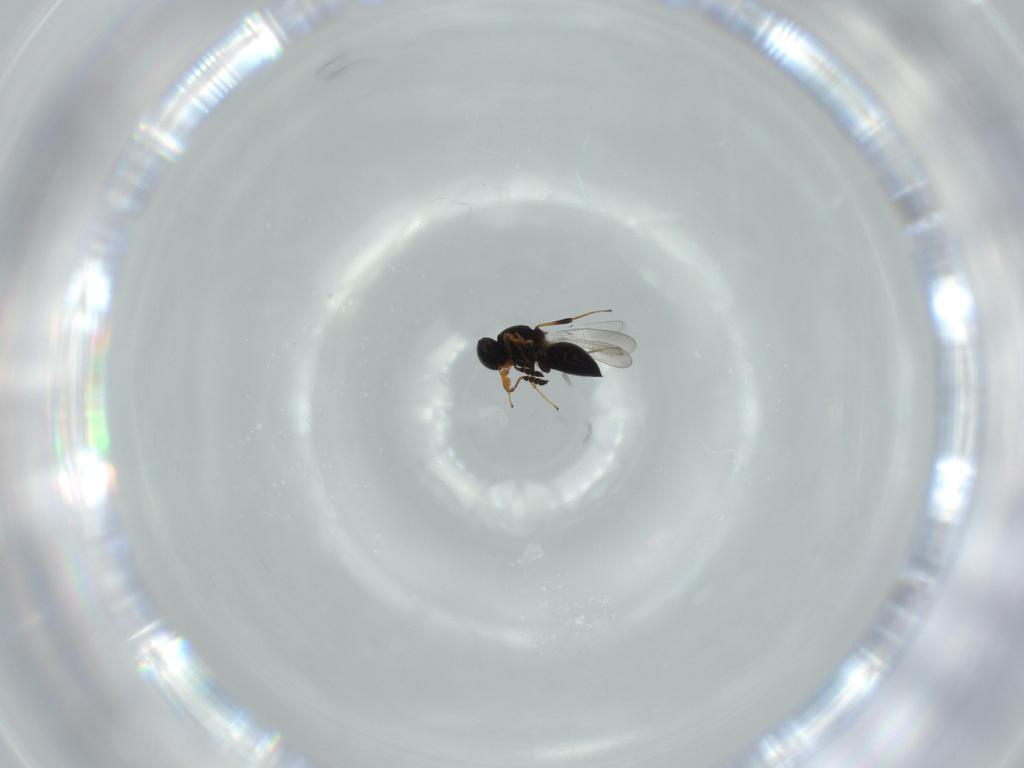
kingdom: Animalia
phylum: Arthropoda
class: Insecta
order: Hymenoptera
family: Platygastridae
